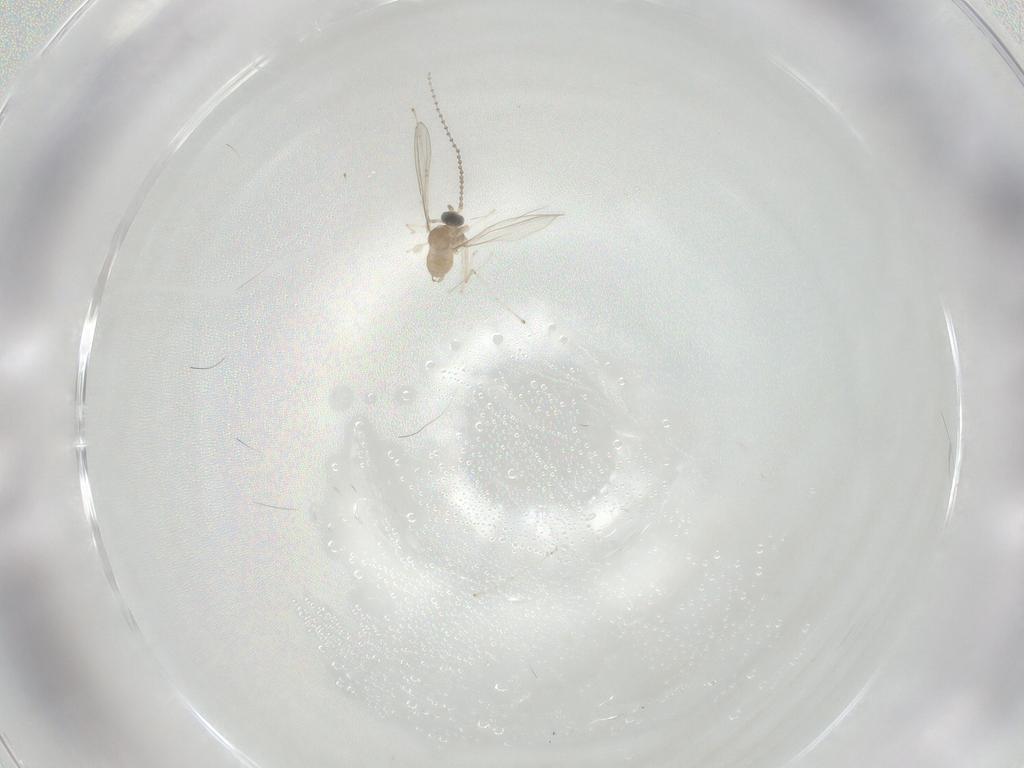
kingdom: Animalia
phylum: Arthropoda
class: Insecta
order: Diptera
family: Cecidomyiidae
